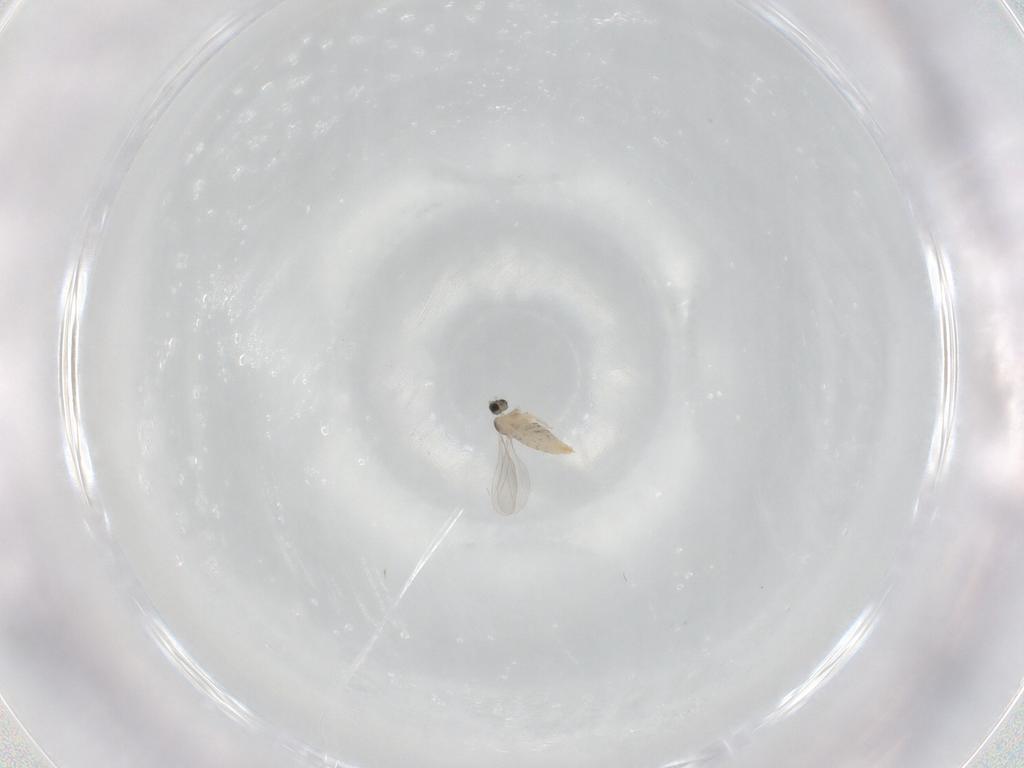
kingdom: Animalia
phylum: Arthropoda
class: Insecta
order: Diptera
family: Cecidomyiidae
